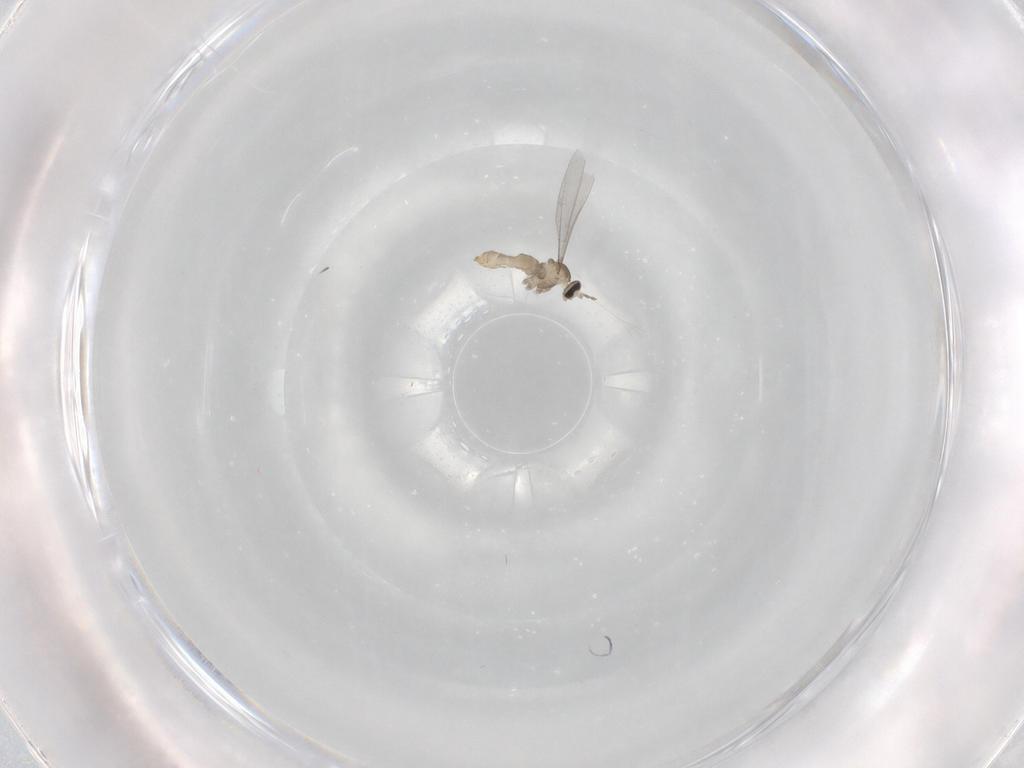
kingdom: Animalia
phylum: Arthropoda
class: Insecta
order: Diptera
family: Cecidomyiidae
